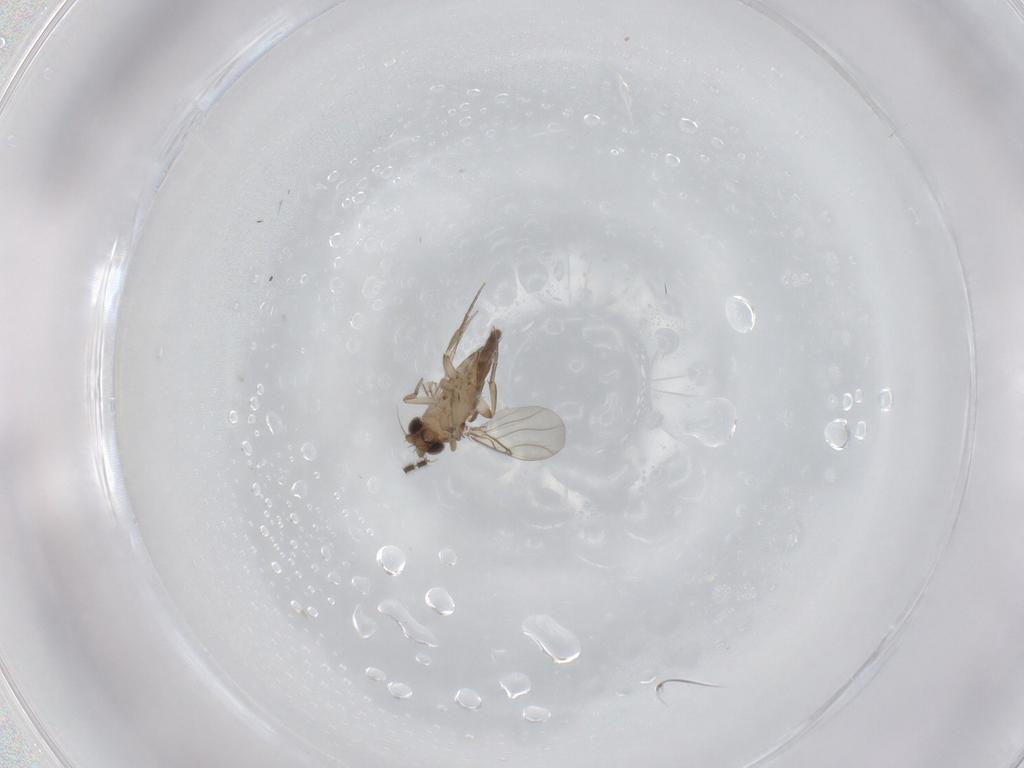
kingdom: Animalia
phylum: Arthropoda
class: Insecta
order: Diptera
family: Phoridae
